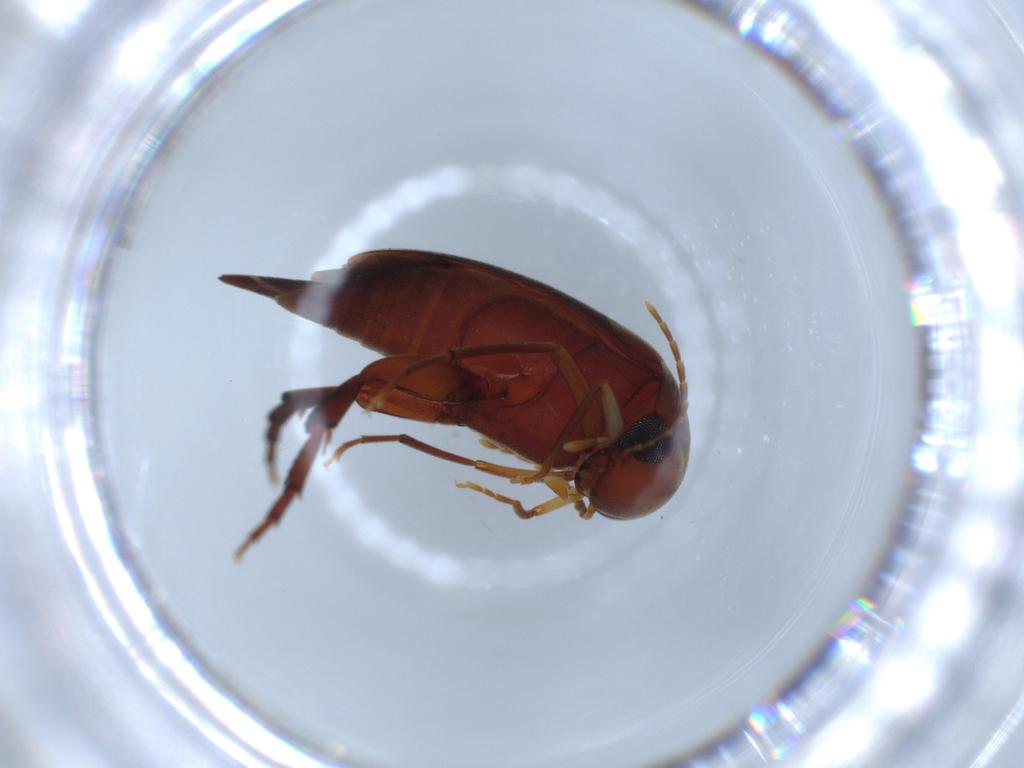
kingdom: Animalia
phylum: Arthropoda
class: Insecta
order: Coleoptera
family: Mordellidae
